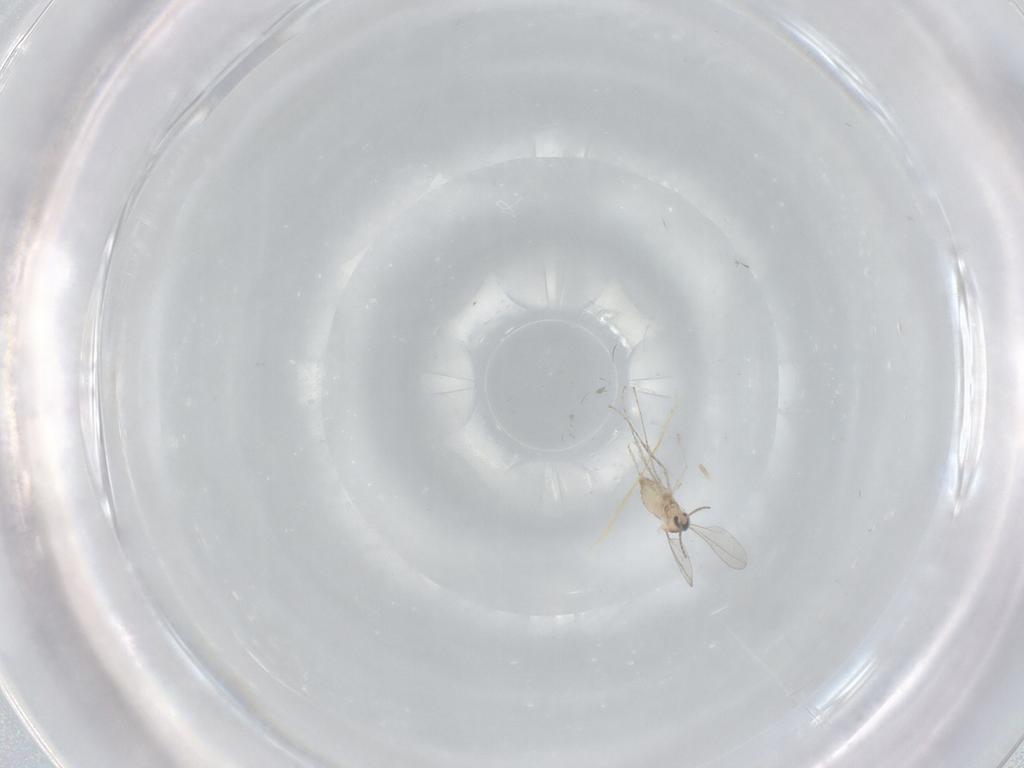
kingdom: Animalia
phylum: Arthropoda
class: Insecta
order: Diptera
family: Cecidomyiidae
